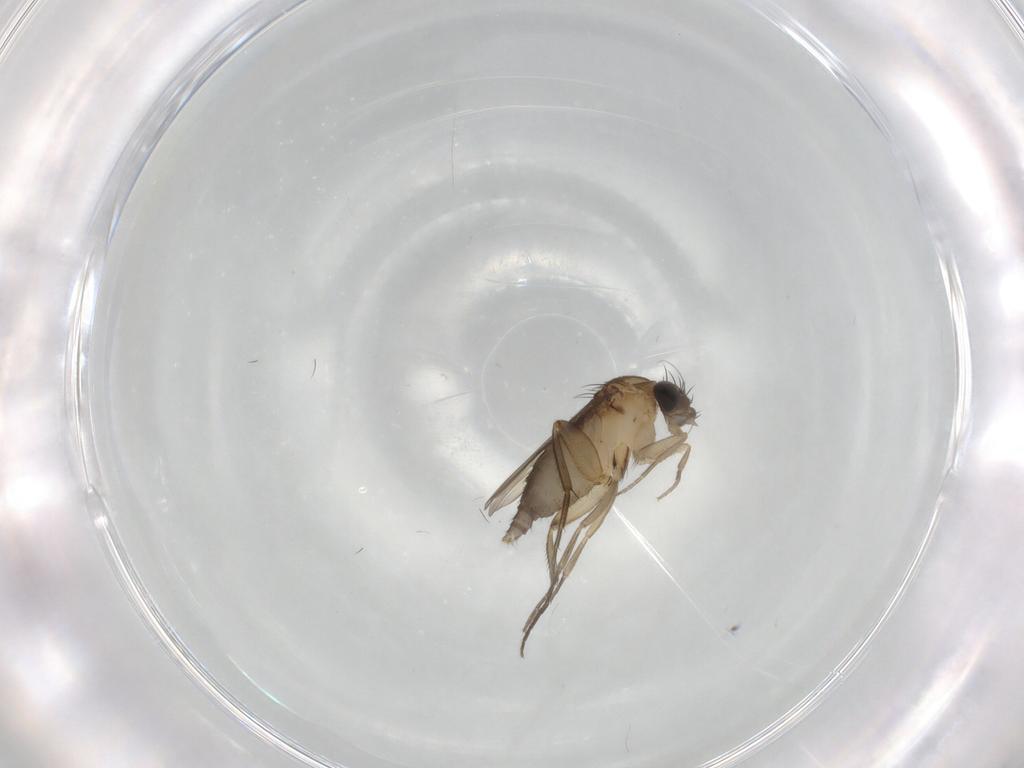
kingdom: Animalia
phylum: Arthropoda
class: Insecta
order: Diptera
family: Phoridae
